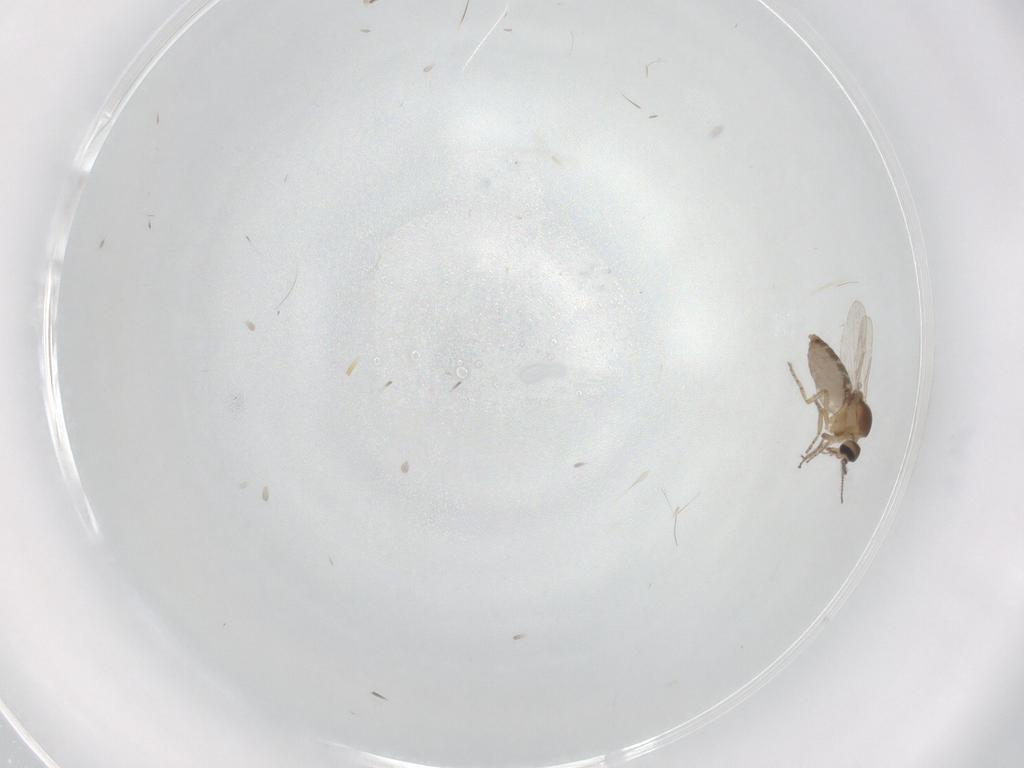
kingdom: Animalia
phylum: Arthropoda
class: Insecta
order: Diptera
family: Ceratopogonidae
